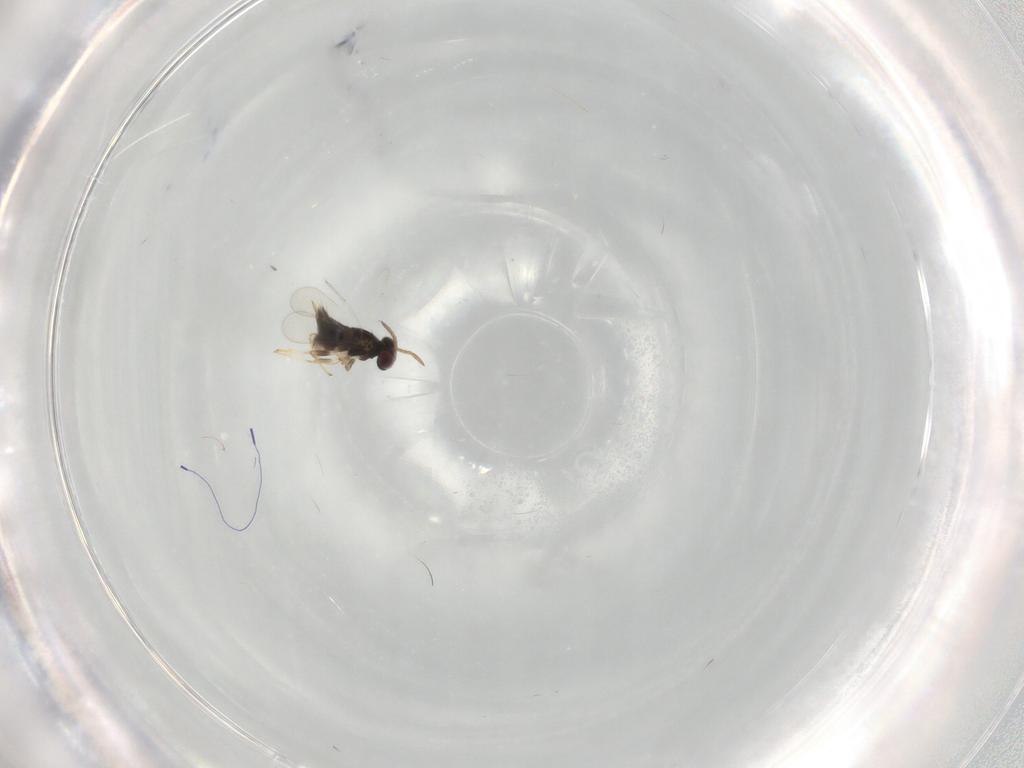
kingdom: Animalia
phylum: Arthropoda
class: Insecta
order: Hymenoptera
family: Aphelinidae
